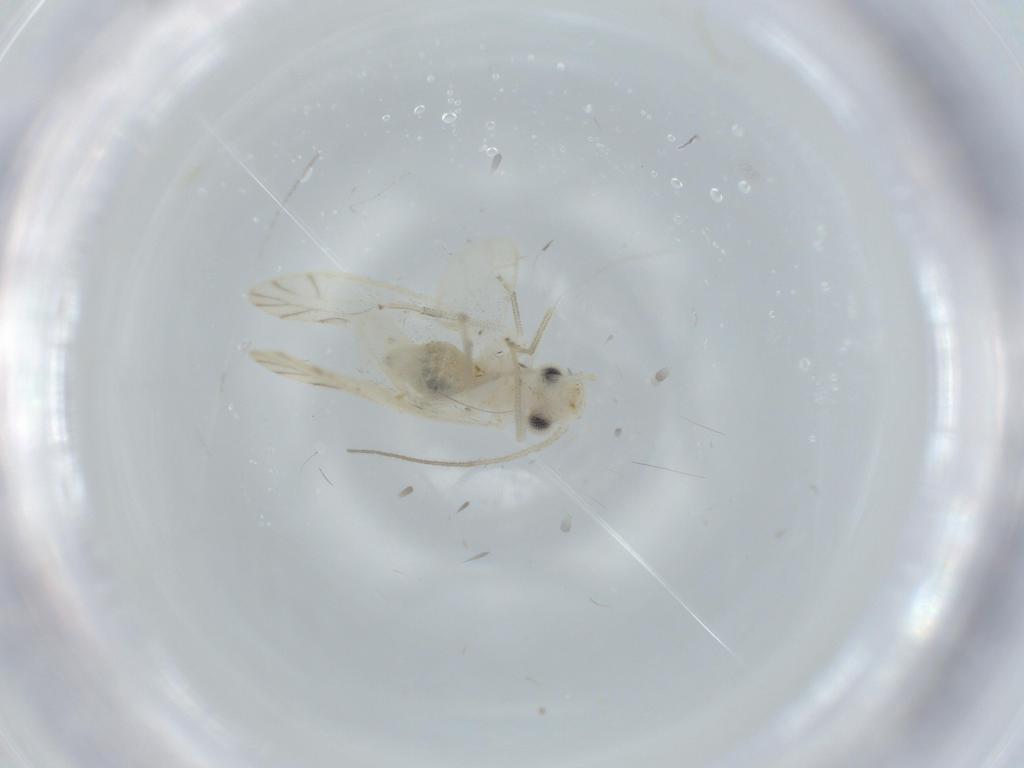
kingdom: Animalia
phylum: Arthropoda
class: Insecta
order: Psocodea
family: Caeciliusidae
